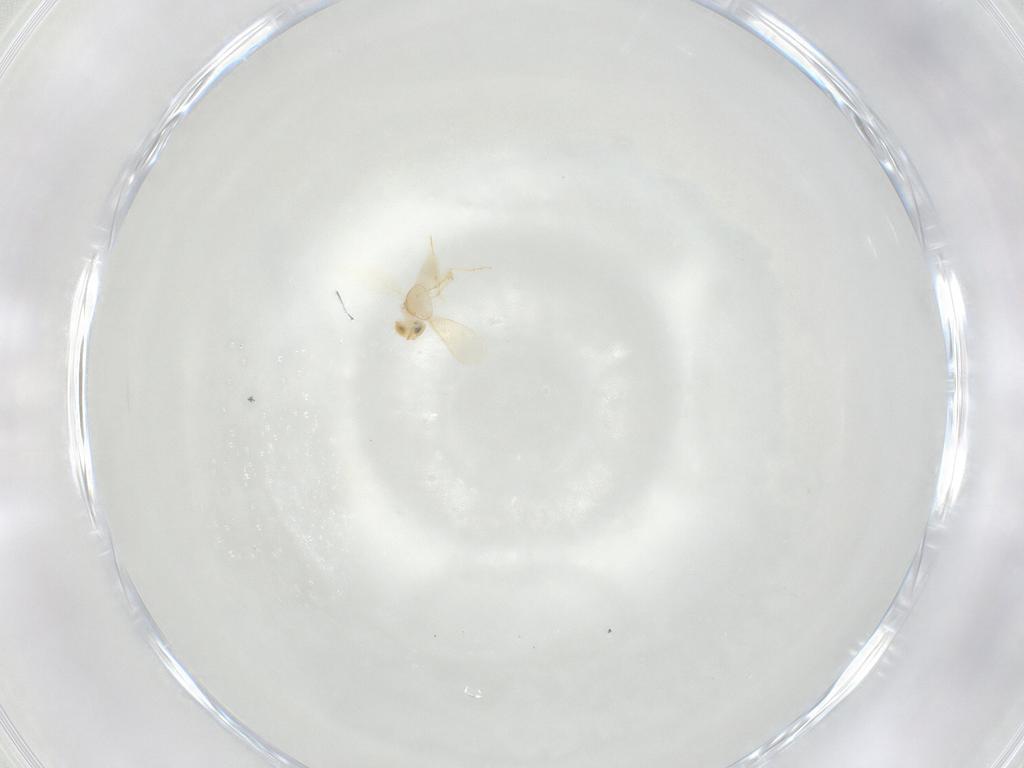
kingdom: Animalia
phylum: Arthropoda
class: Insecta
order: Hymenoptera
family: Aphelinidae
